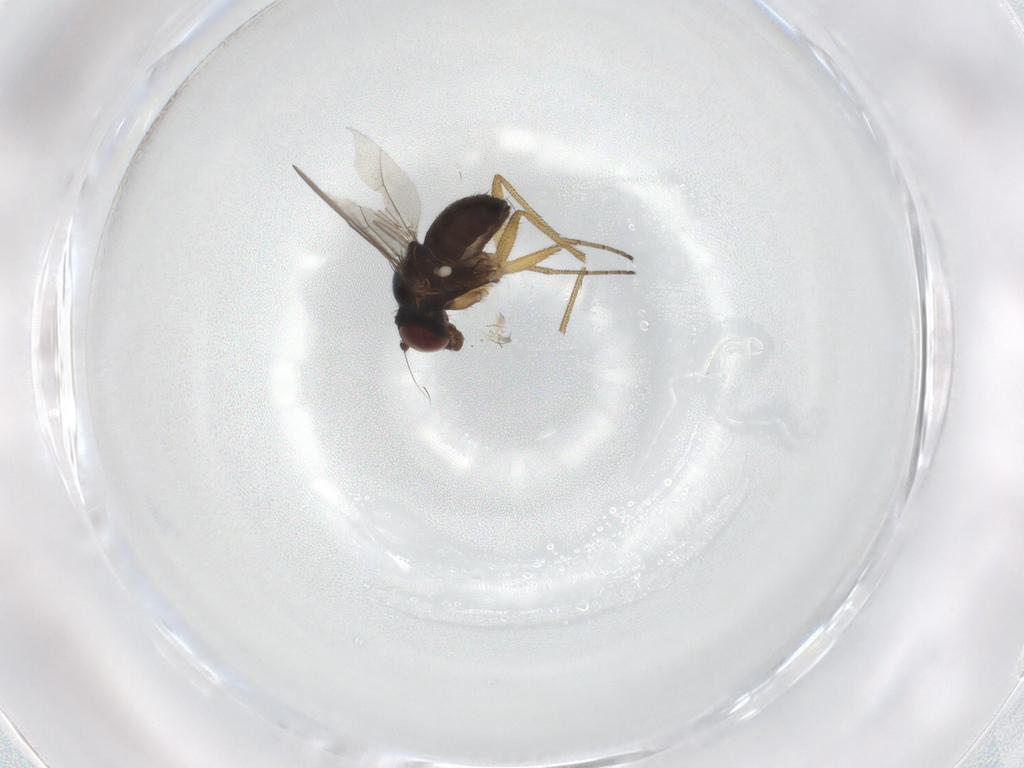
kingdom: Animalia
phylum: Arthropoda
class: Insecta
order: Diptera
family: Dolichopodidae
